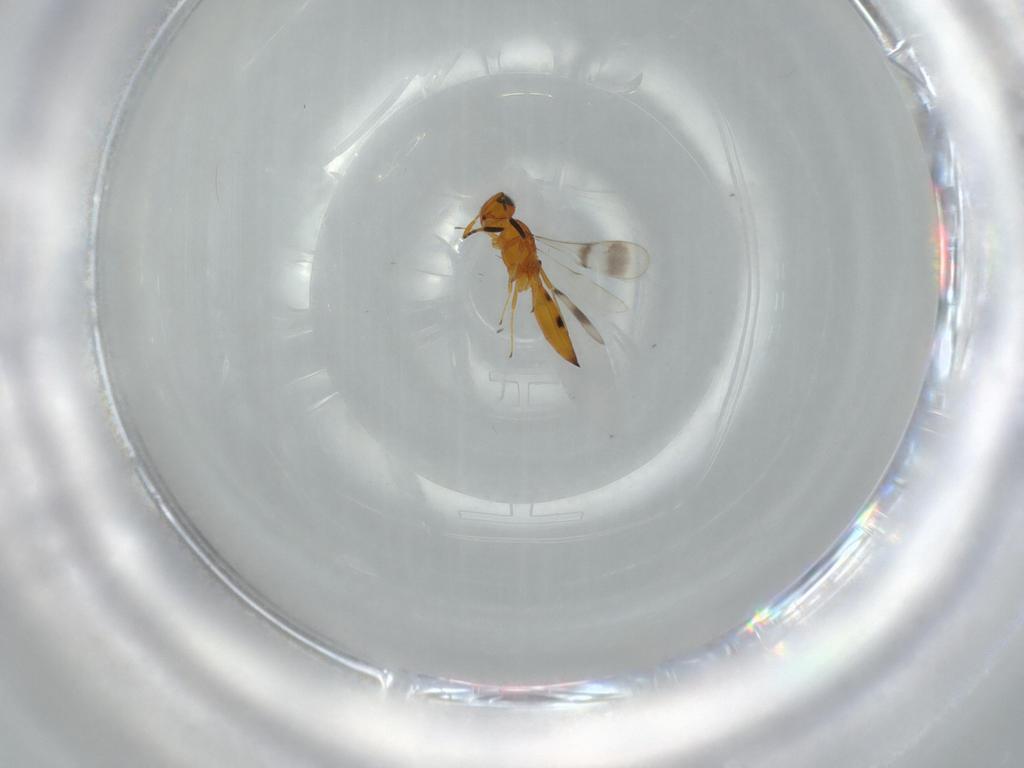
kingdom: Animalia
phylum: Arthropoda
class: Insecta
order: Hymenoptera
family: Scelionidae
